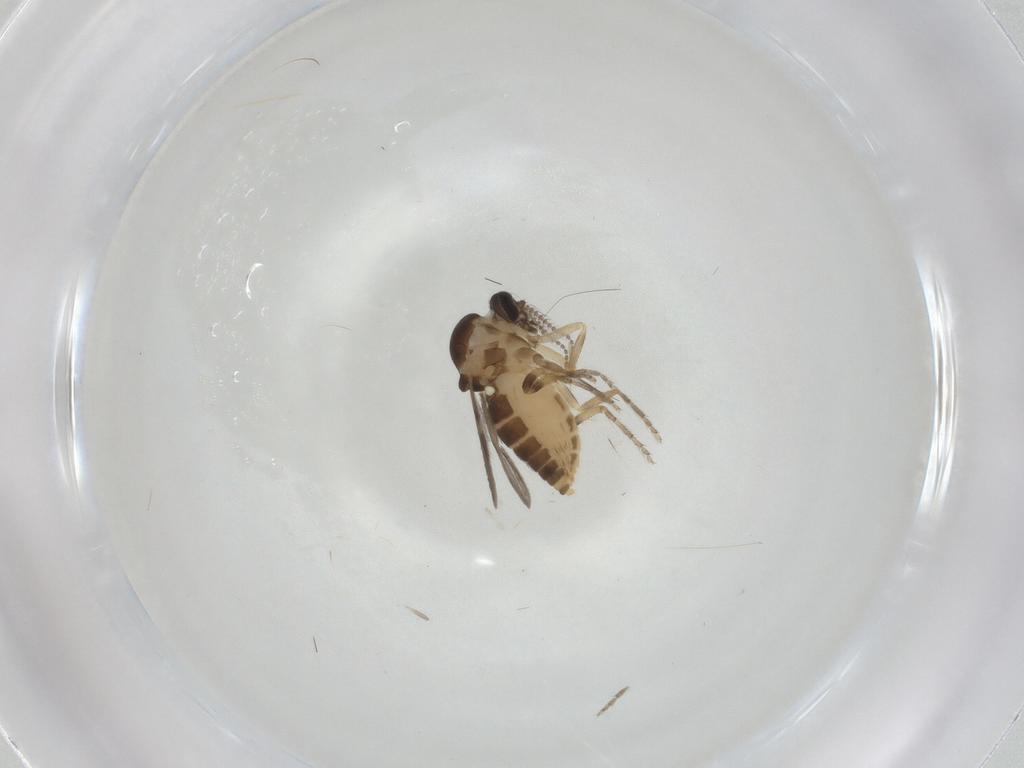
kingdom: Animalia
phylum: Arthropoda
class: Insecta
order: Diptera
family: Ceratopogonidae
